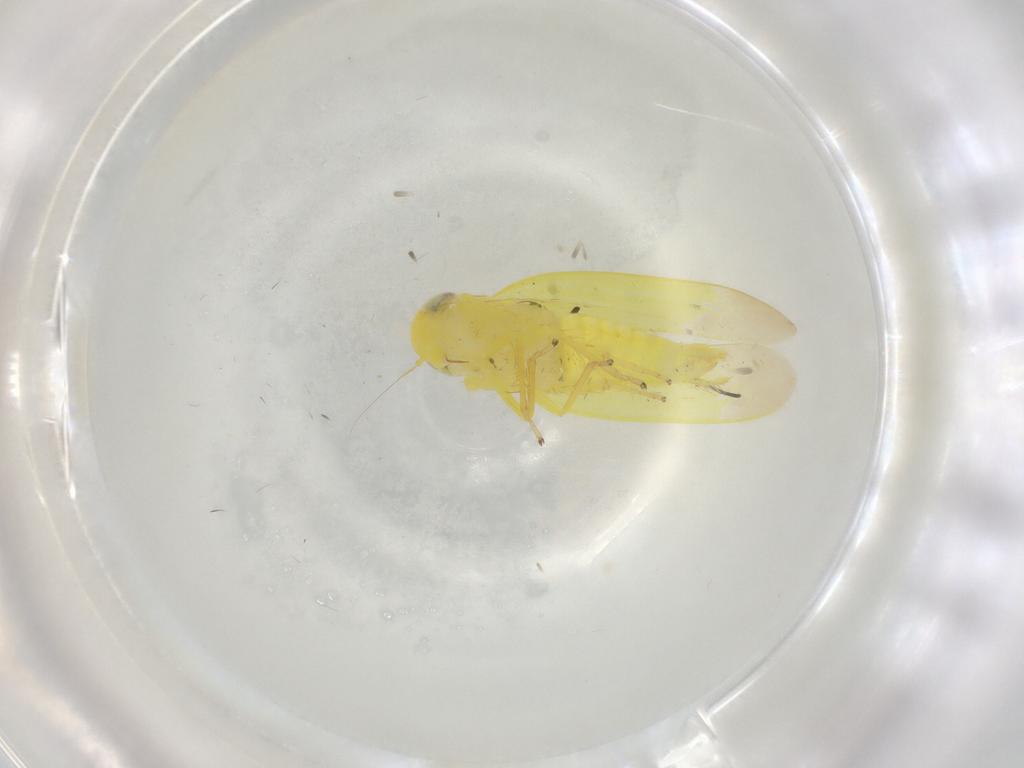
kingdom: Animalia
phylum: Arthropoda
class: Insecta
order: Hemiptera
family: Cicadellidae
